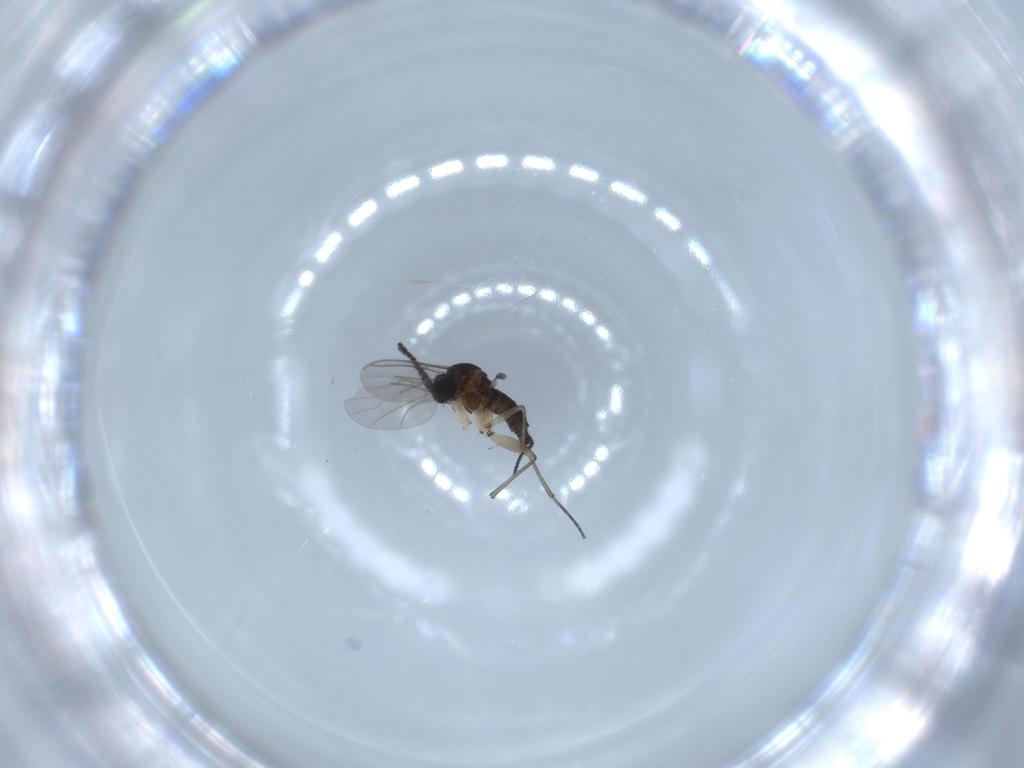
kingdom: Animalia
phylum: Arthropoda
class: Insecta
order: Diptera
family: Sciaridae
